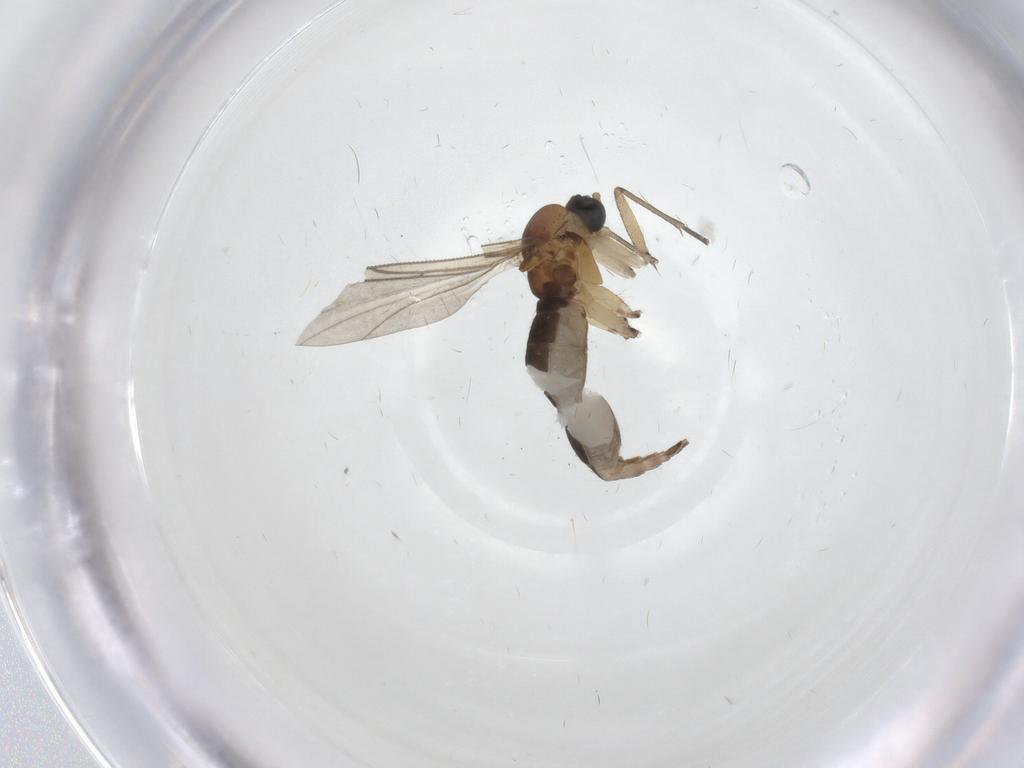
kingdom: Animalia
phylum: Arthropoda
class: Insecta
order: Diptera
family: Sciaridae
